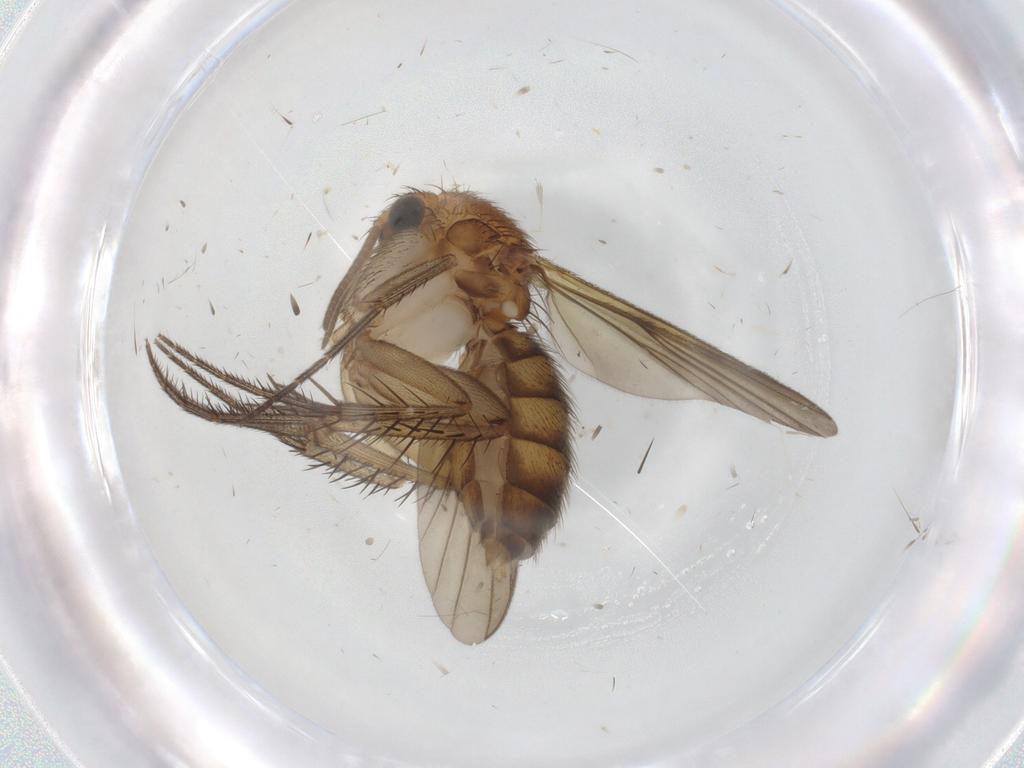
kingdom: Animalia
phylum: Arthropoda
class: Insecta
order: Diptera
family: Mycetophilidae
